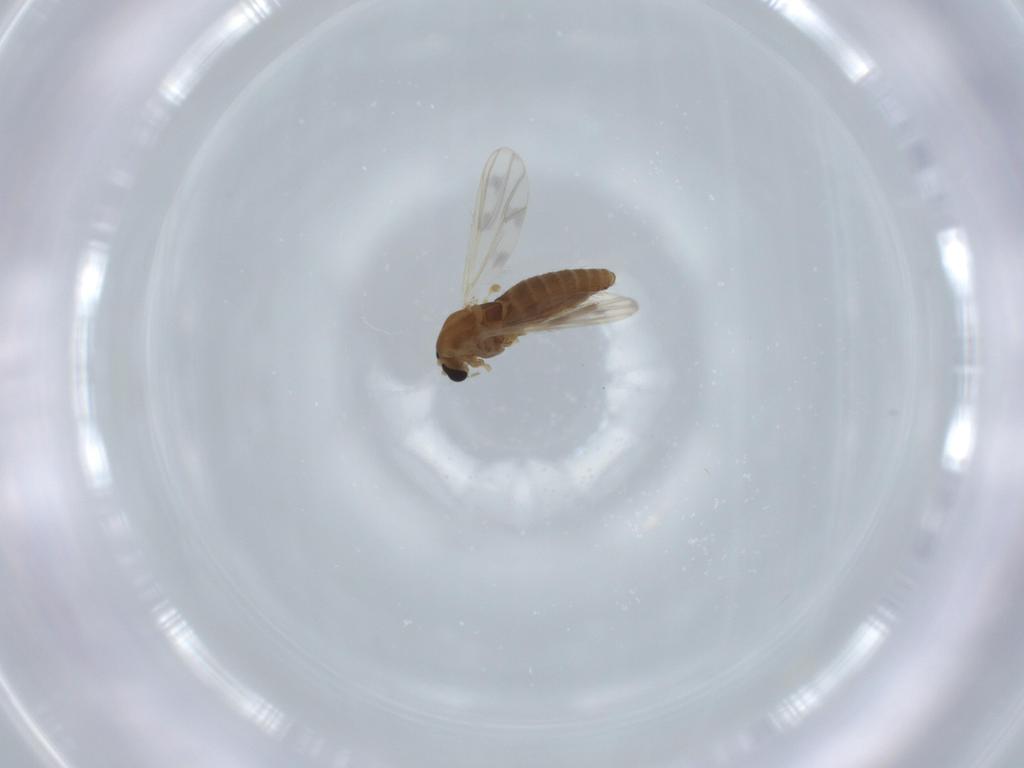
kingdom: Animalia
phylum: Arthropoda
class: Insecta
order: Diptera
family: Chironomidae
